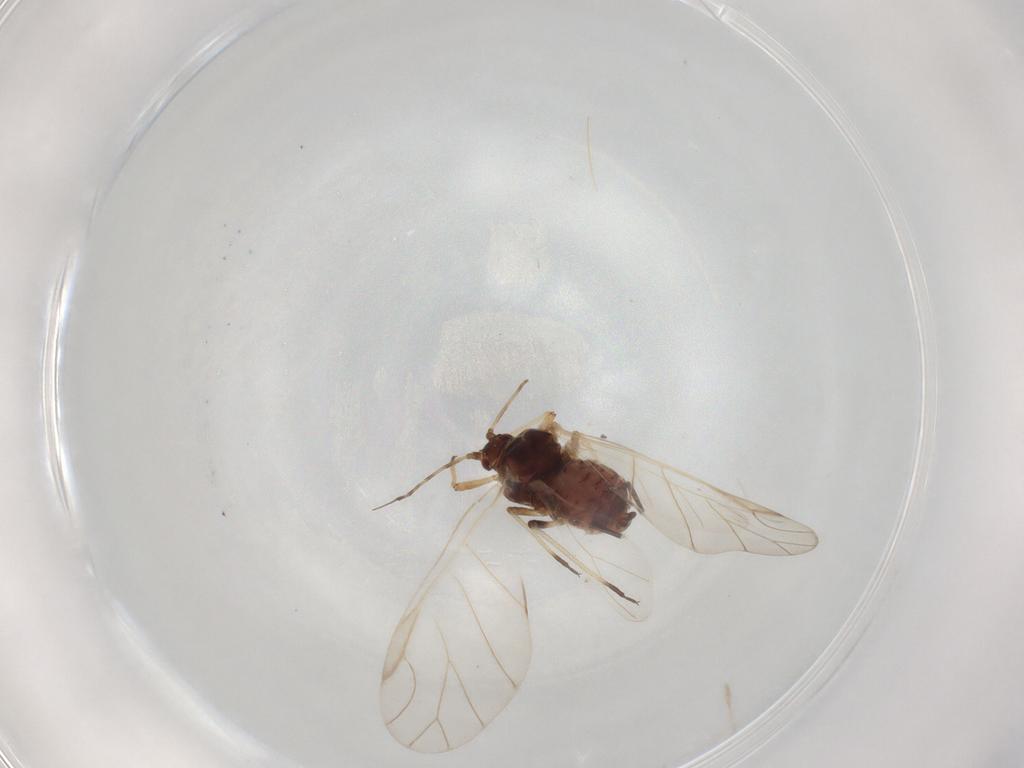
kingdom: Animalia
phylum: Arthropoda
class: Insecta
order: Hemiptera
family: Aphididae
